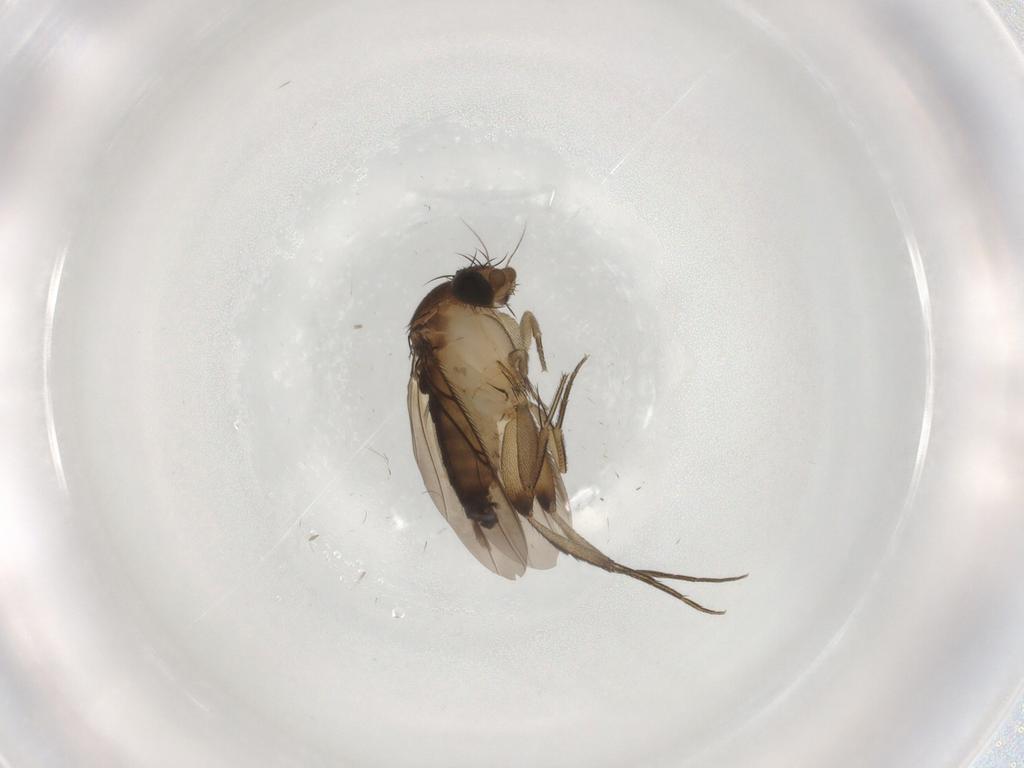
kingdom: Animalia
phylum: Arthropoda
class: Insecta
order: Diptera
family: Cecidomyiidae
